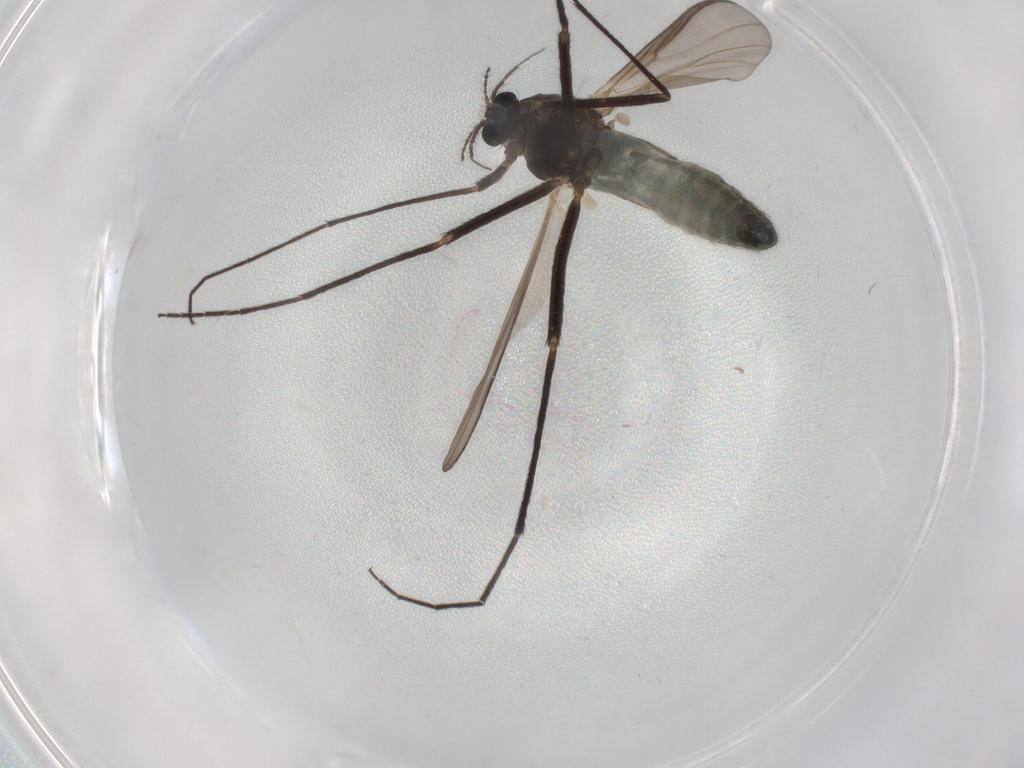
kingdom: Animalia
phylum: Arthropoda
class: Insecta
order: Diptera
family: Chironomidae
